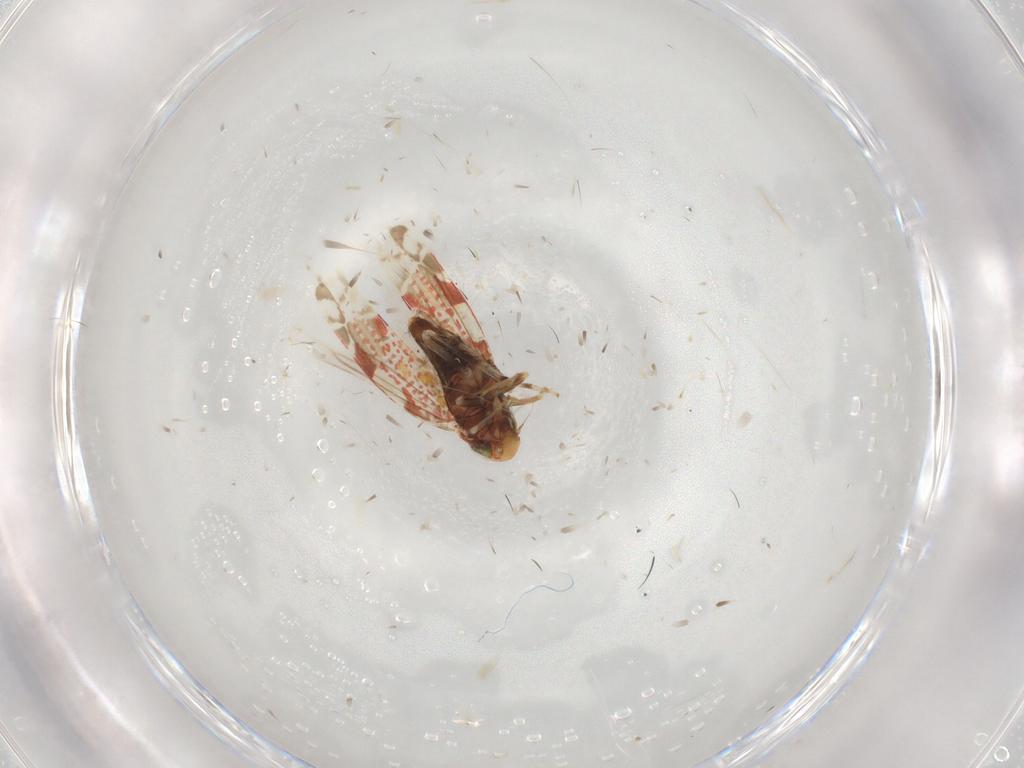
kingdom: Animalia
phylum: Arthropoda
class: Insecta
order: Hemiptera
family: Cicadellidae
